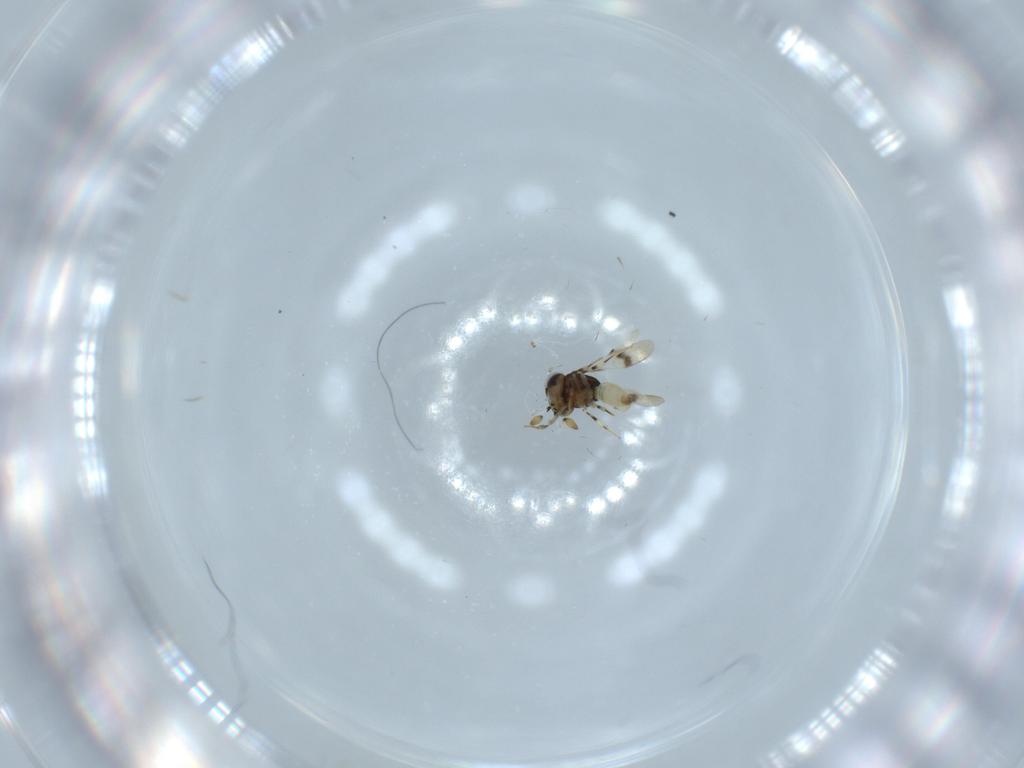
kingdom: Animalia
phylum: Arthropoda
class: Insecta
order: Hymenoptera
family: Scelionidae
